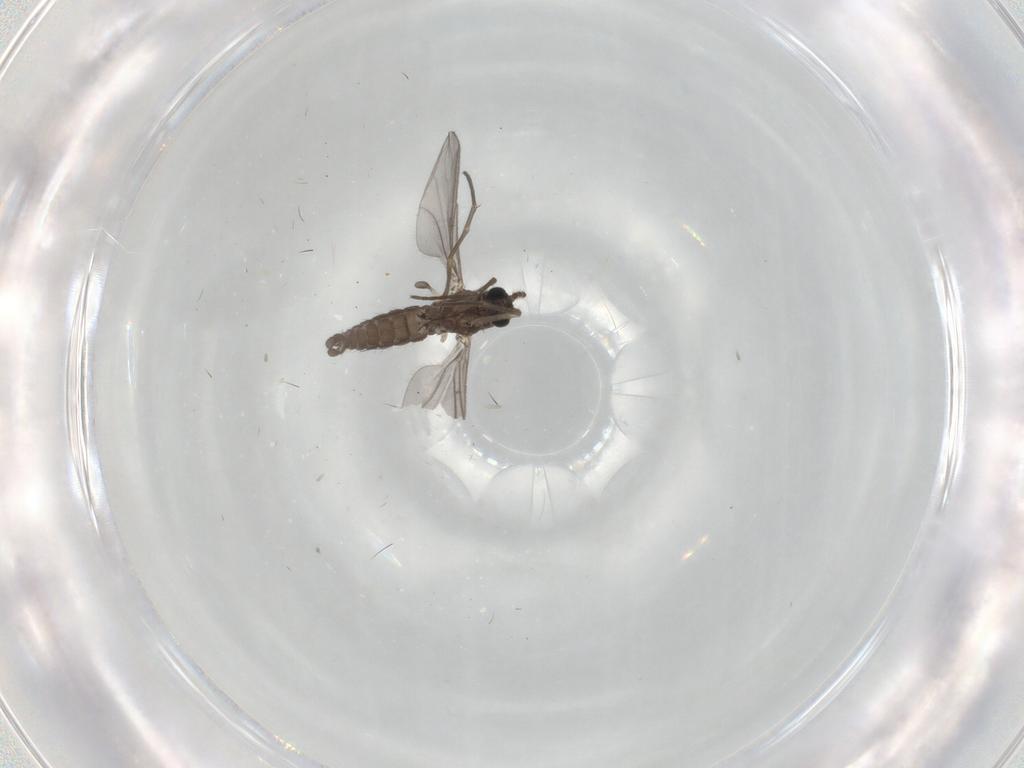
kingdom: Animalia
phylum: Arthropoda
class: Insecta
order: Diptera
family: Sciaridae
